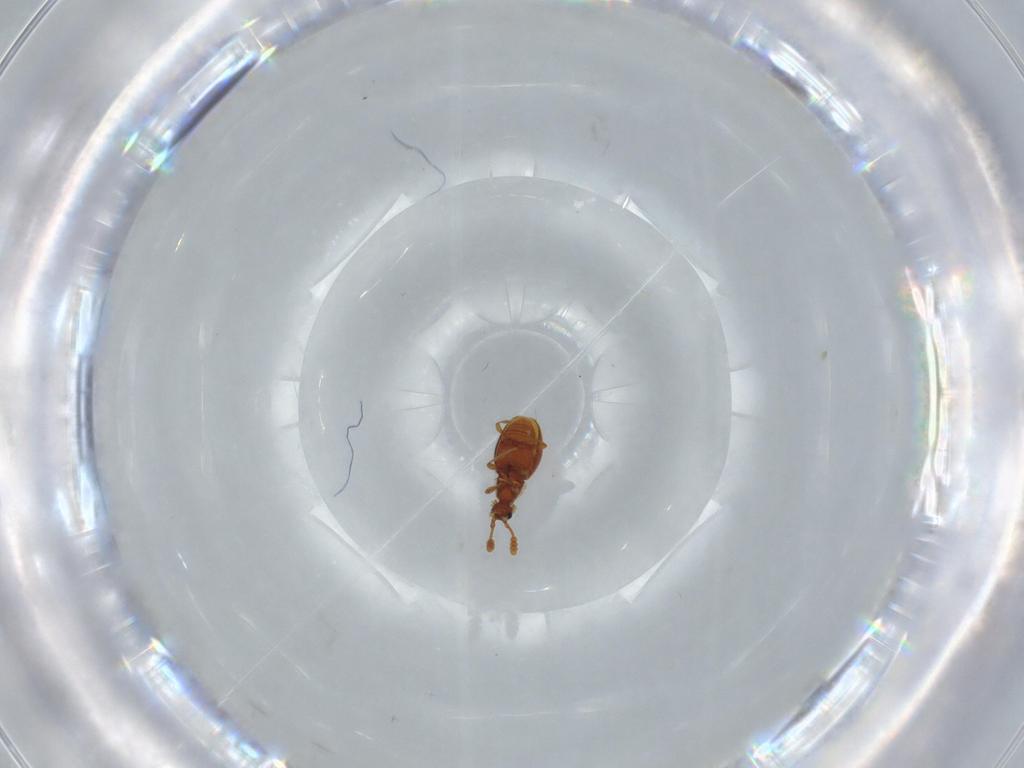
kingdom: Animalia
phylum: Arthropoda
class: Insecta
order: Coleoptera
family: Staphylinidae
